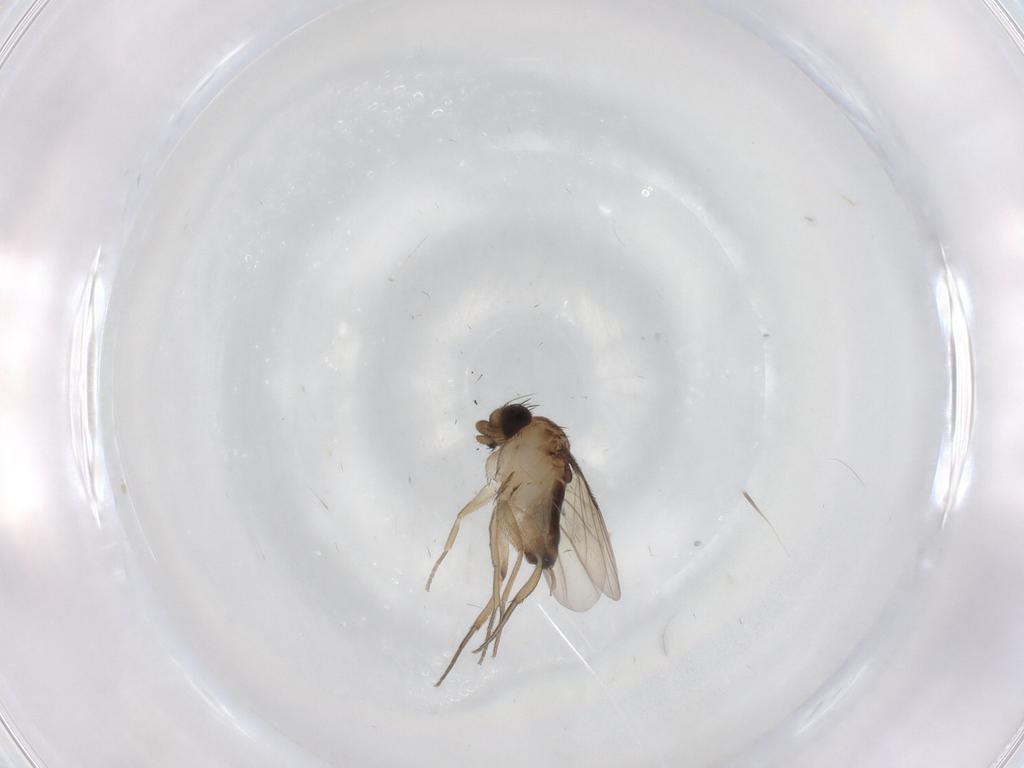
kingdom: Animalia
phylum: Arthropoda
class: Insecta
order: Diptera
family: Sciaridae
